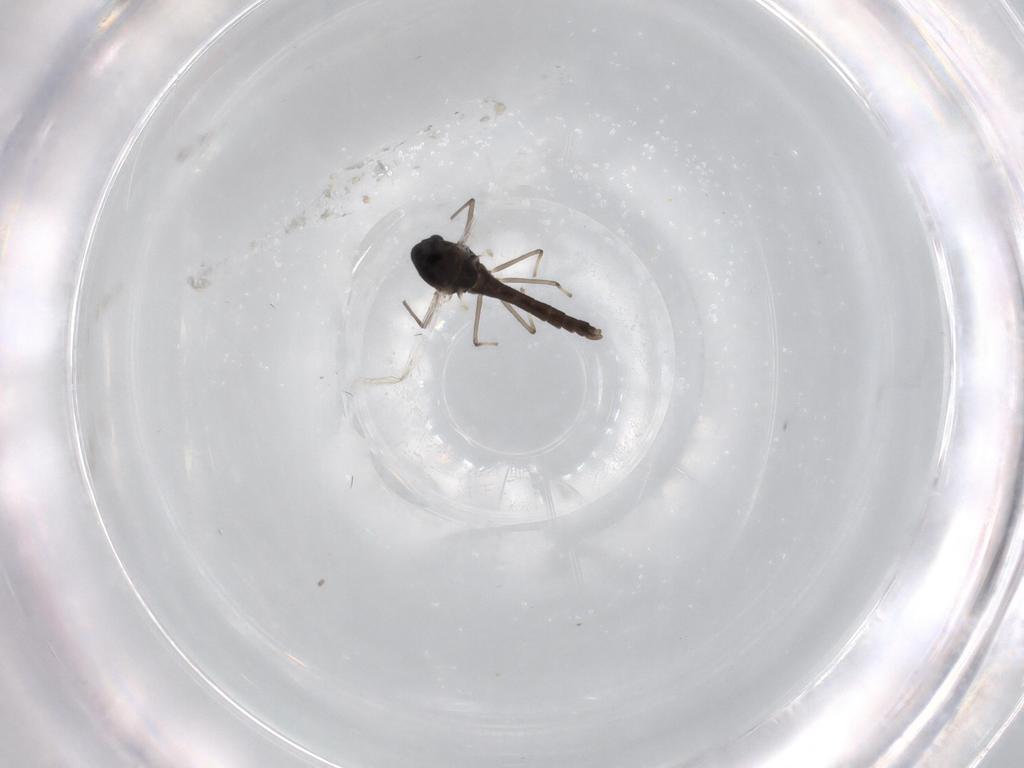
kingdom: Animalia
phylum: Arthropoda
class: Insecta
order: Diptera
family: Chironomidae
